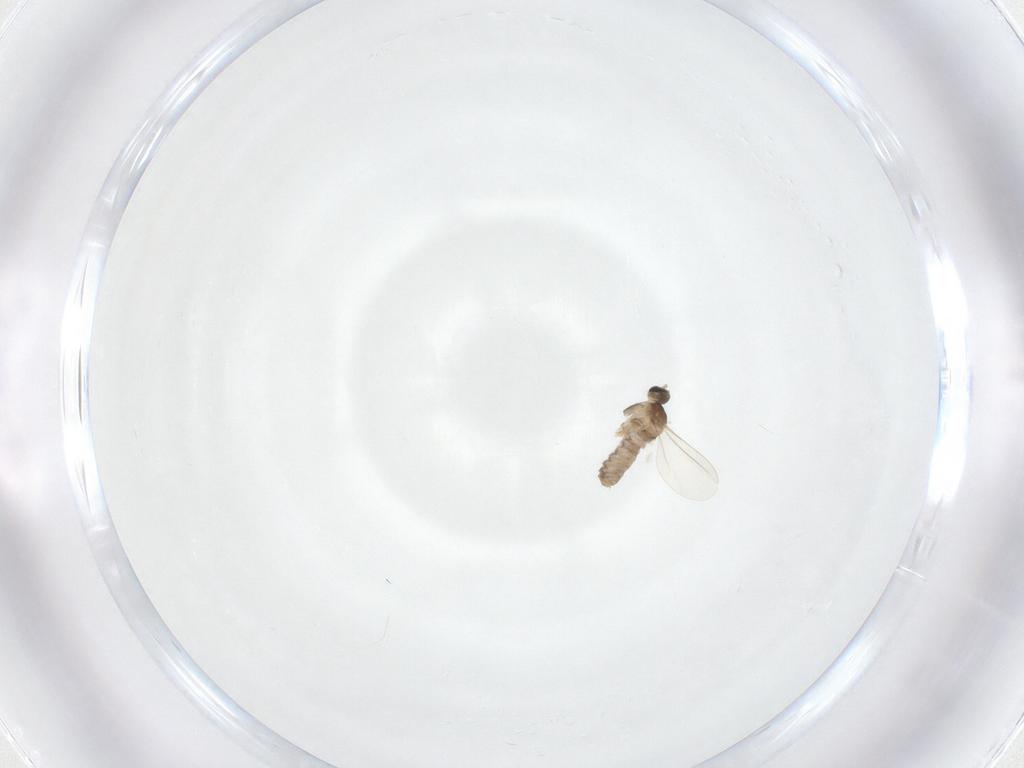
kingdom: Animalia
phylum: Arthropoda
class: Insecta
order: Diptera
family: Cecidomyiidae
